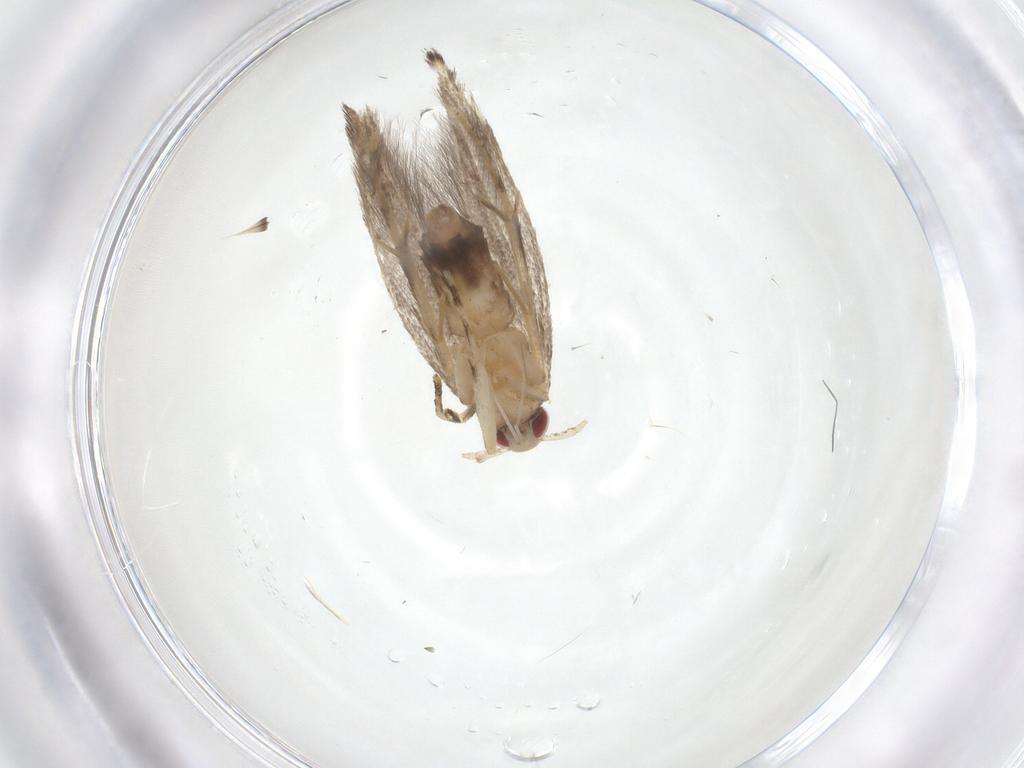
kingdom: Animalia
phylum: Arthropoda
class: Insecta
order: Lepidoptera
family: Cosmopterigidae
